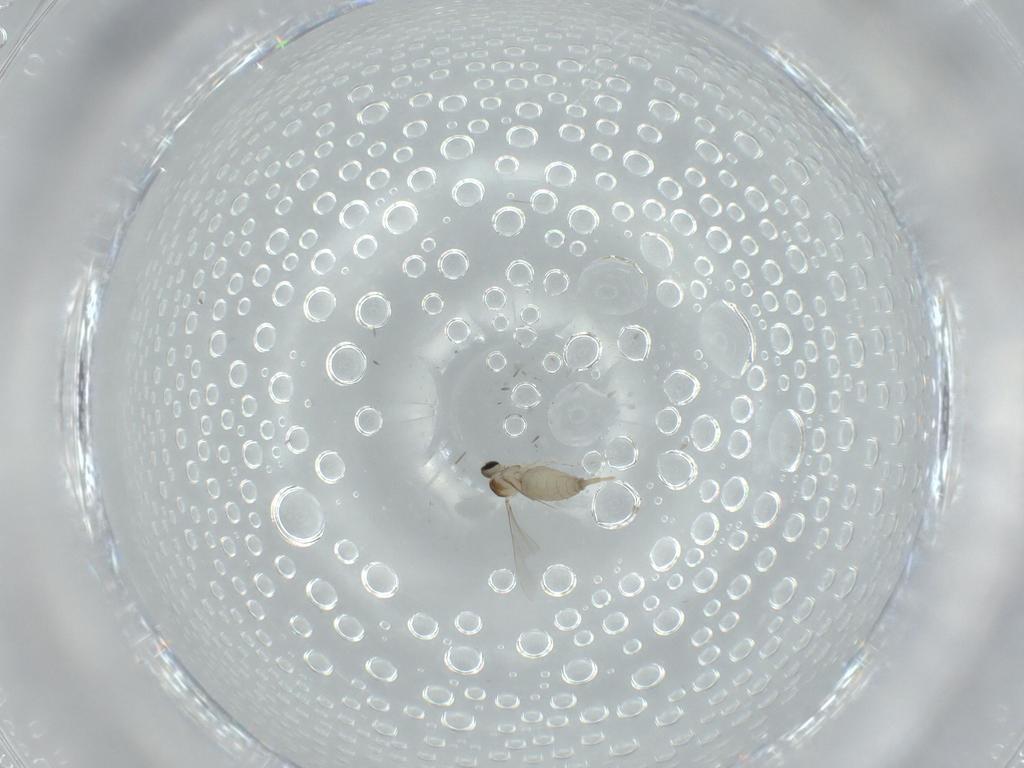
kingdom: Animalia
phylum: Arthropoda
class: Insecta
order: Diptera
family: Cecidomyiidae
